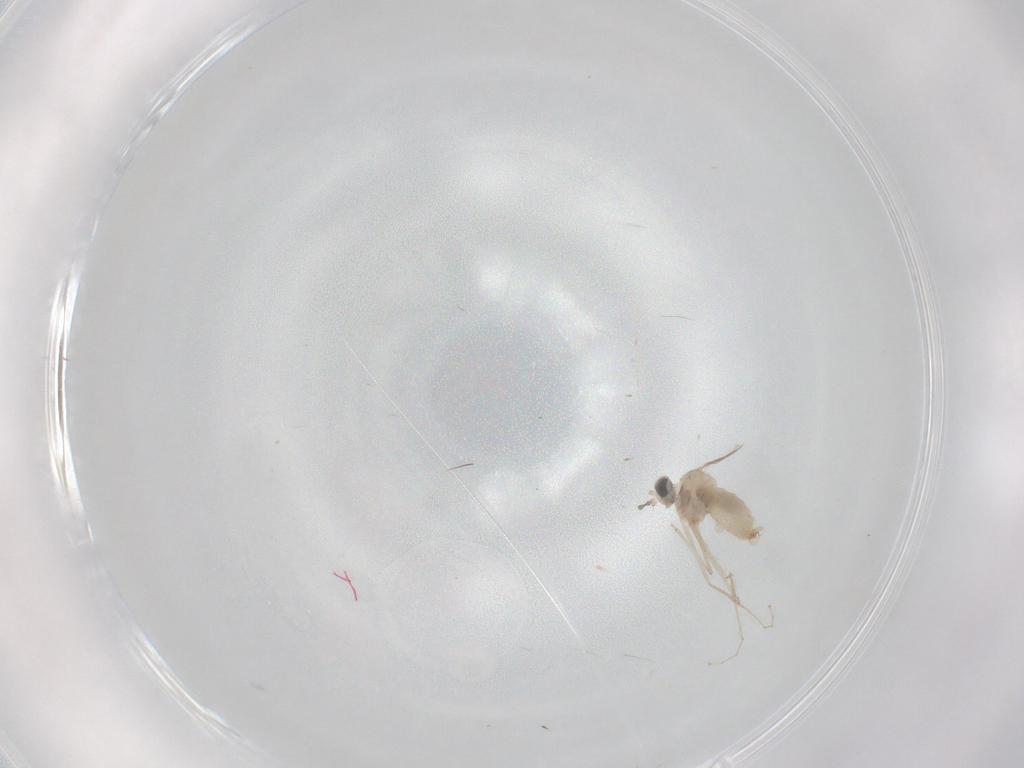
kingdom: Animalia
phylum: Arthropoda
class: Insecta
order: Diptera
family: Cecidomyiidae
